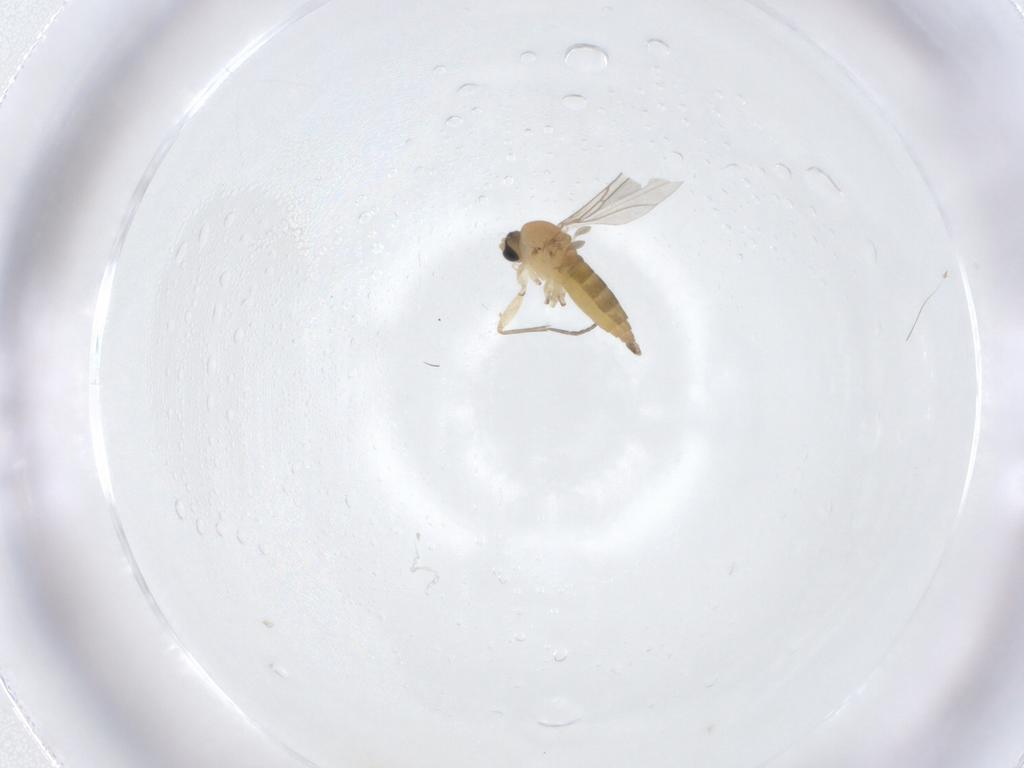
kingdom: Animalia
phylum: Arthropoda
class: Insecta
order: Diptera
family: Sciaridae
